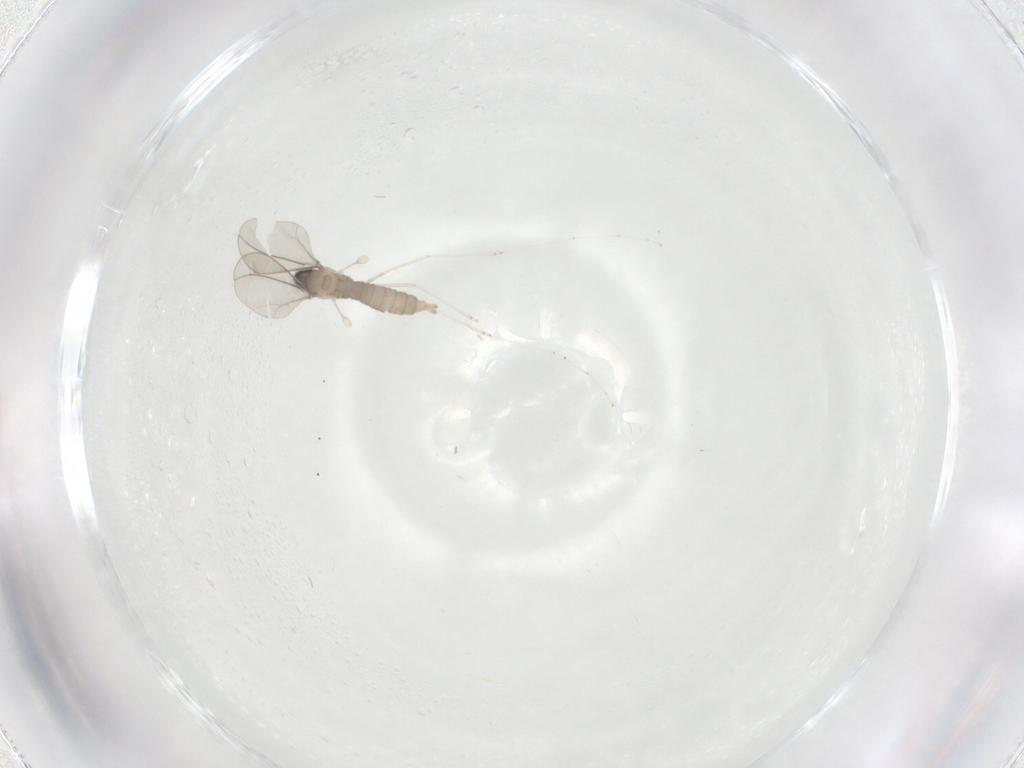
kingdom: Animalia
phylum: Arthropoda
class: Insecta
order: Diptera
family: Cecidomyiidae
